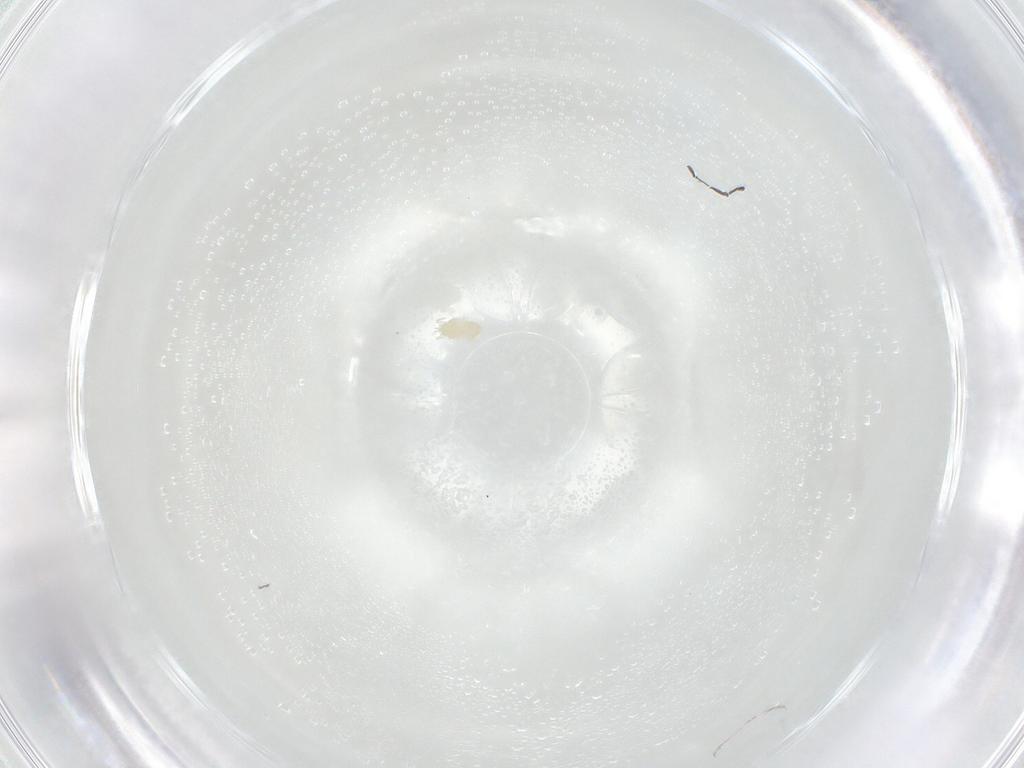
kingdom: Animalia
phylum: Arthropoda
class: Arachnida
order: Trombidiformes
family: Eupodidae
